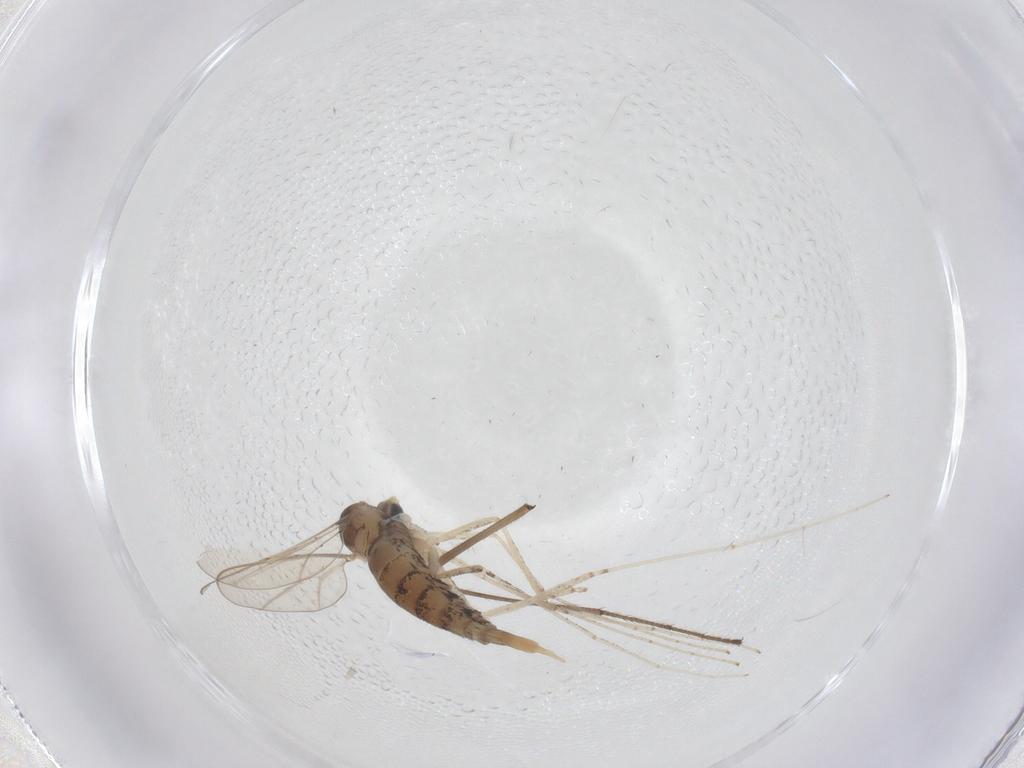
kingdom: Animalia
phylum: Arthropoda
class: Insecta
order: Diptera
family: Cecidomyiidae
